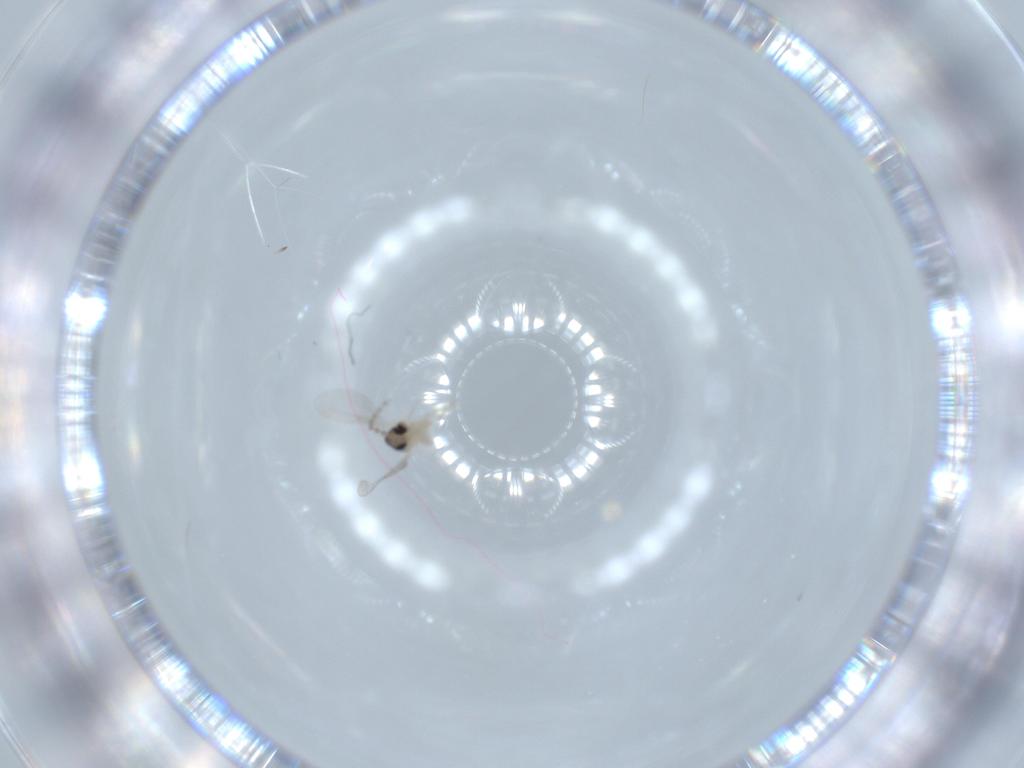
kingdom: Animalia
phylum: Arthropoda
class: Insecta
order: Diptera
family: Cecidomyiidae
